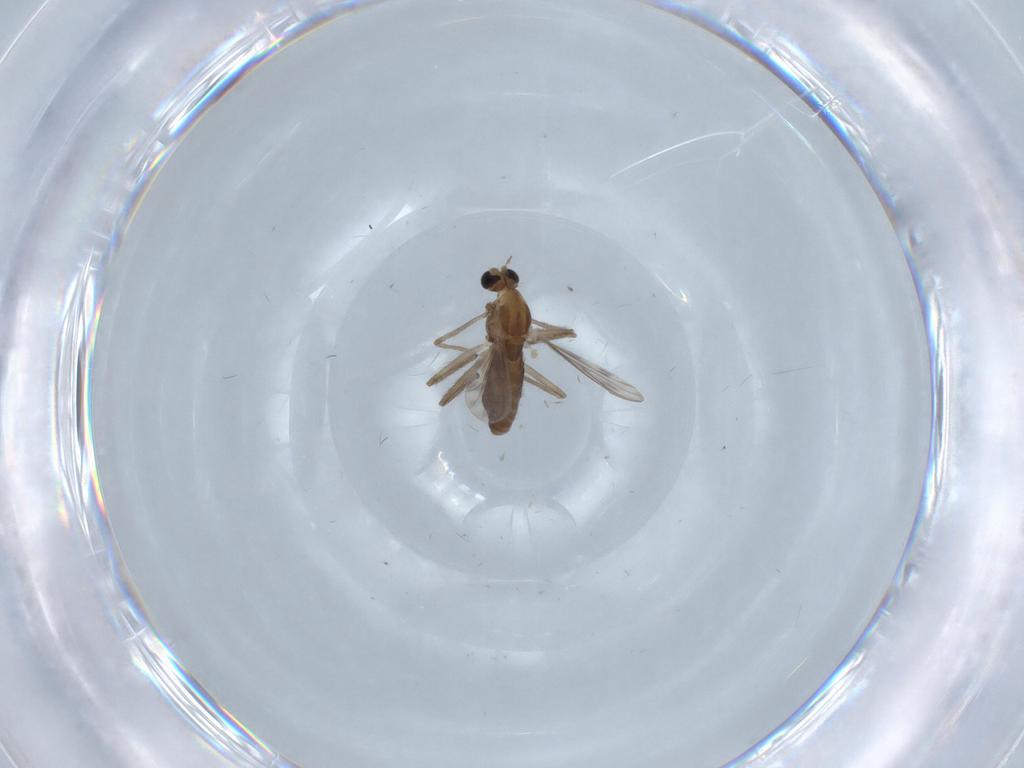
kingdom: Animalia
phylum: Arthropoda
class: Insecta
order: Diptera
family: Chironomidae
